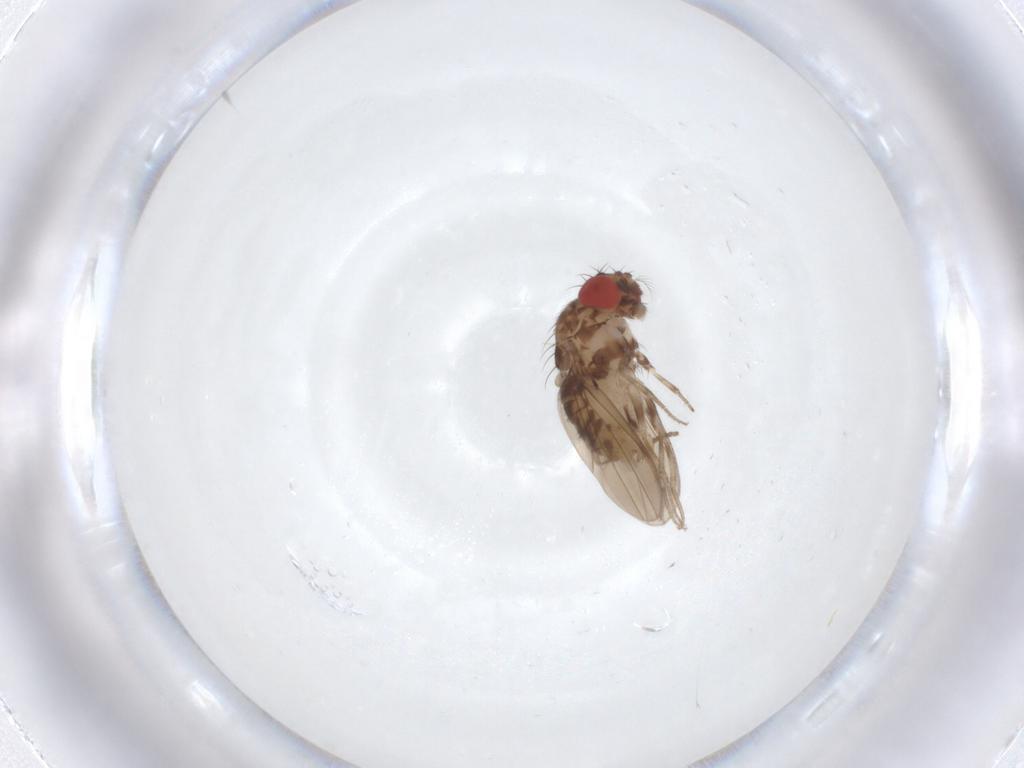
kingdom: Animalia
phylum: Arthropoda
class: Insecta
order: Diptera
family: Drosophilidae
